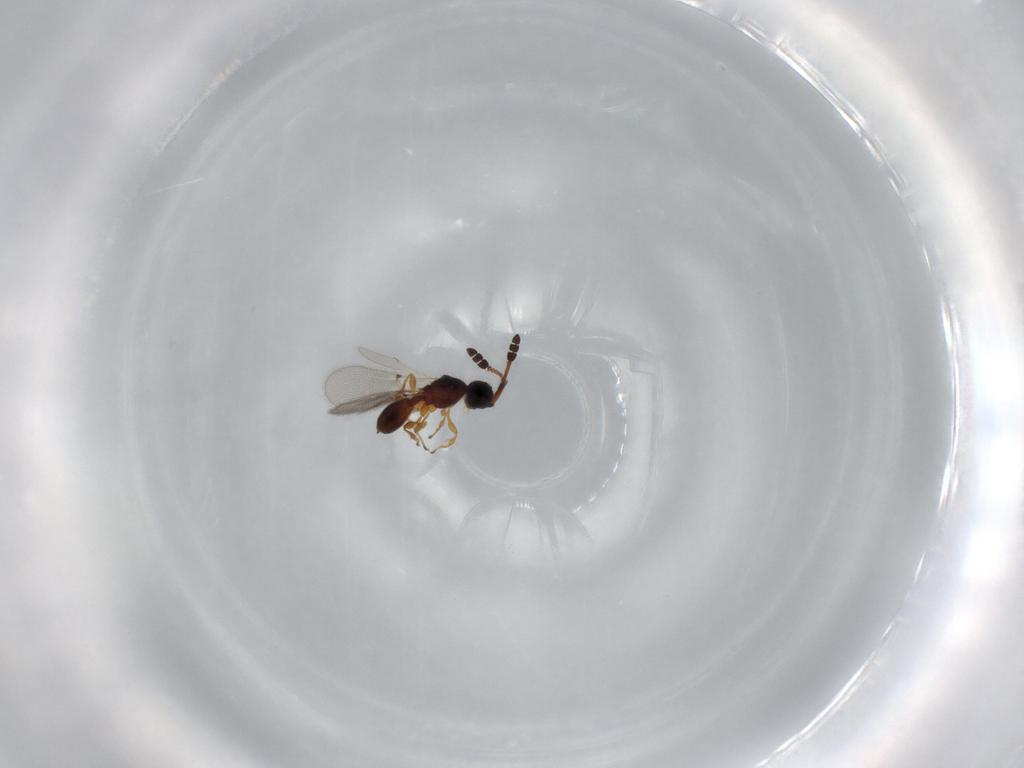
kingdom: Animalia
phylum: Arthropoda
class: Insecta
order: Hymenoptera
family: Diapriidae
